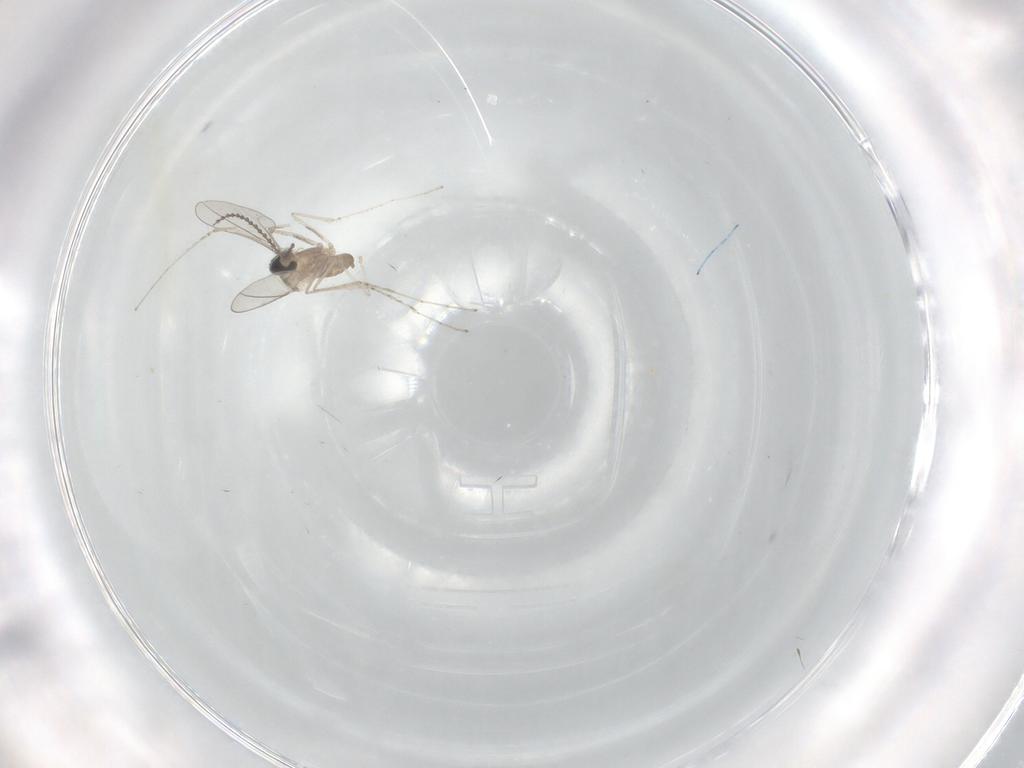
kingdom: Animalia
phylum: Arthropoda
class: Insecta
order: Diptera
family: Cecidomyiidae
